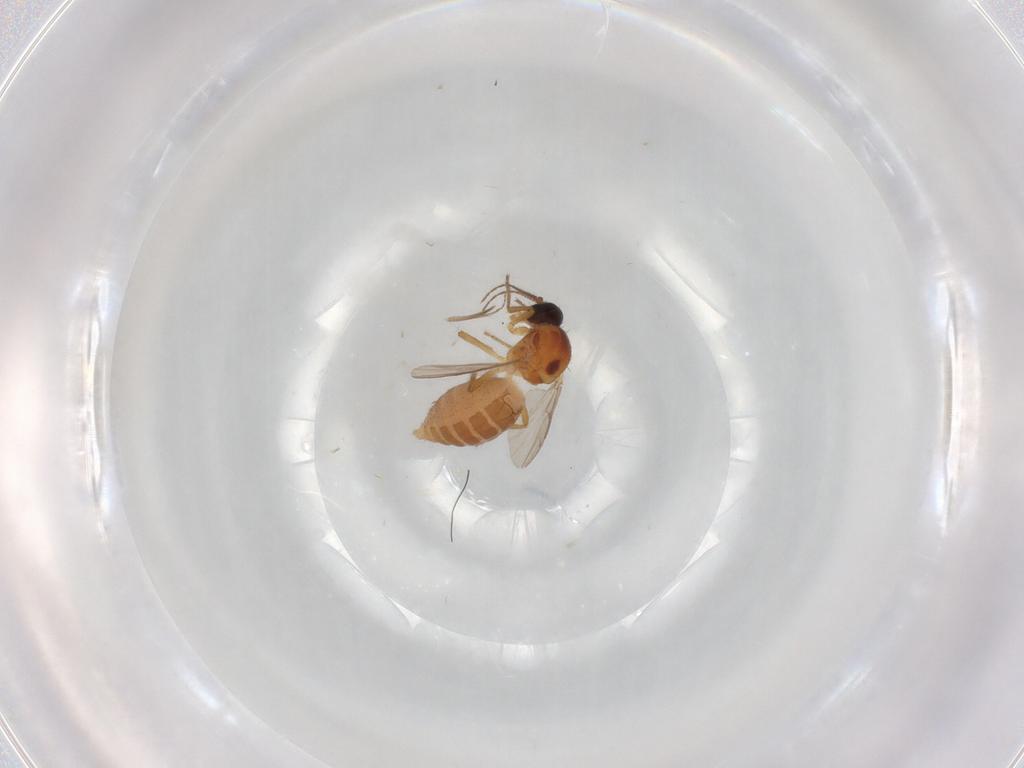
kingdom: Animalia
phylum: Arthropoda
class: Insecta
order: Diptera
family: Ceratopogonidae
